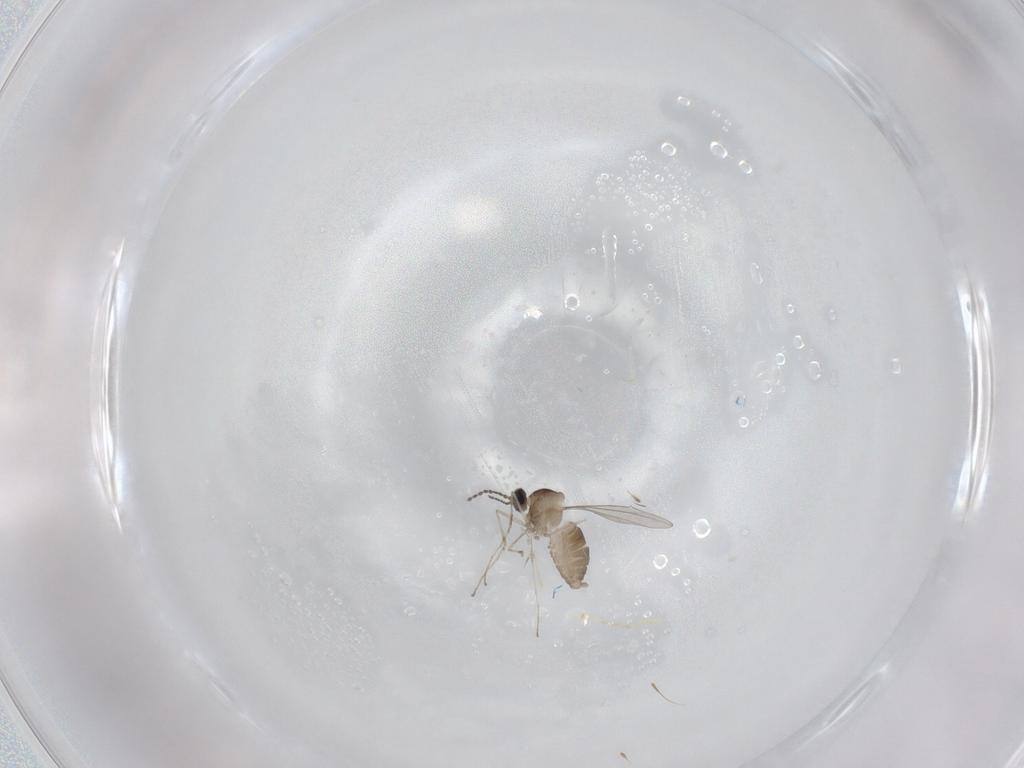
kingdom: Animalia
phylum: Arthropoda
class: Insecta
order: Diptera
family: Cecidomyiidae
